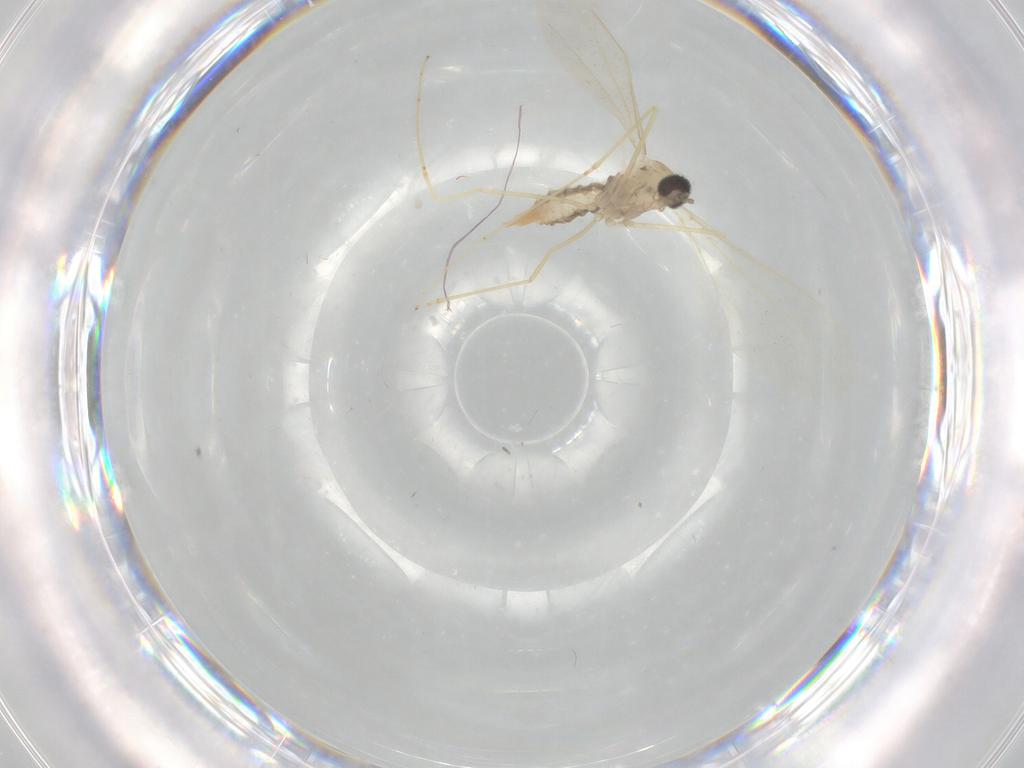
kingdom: Animalia
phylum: Arthropoda
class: Insecta
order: Diptera
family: Cecidomyiidae
